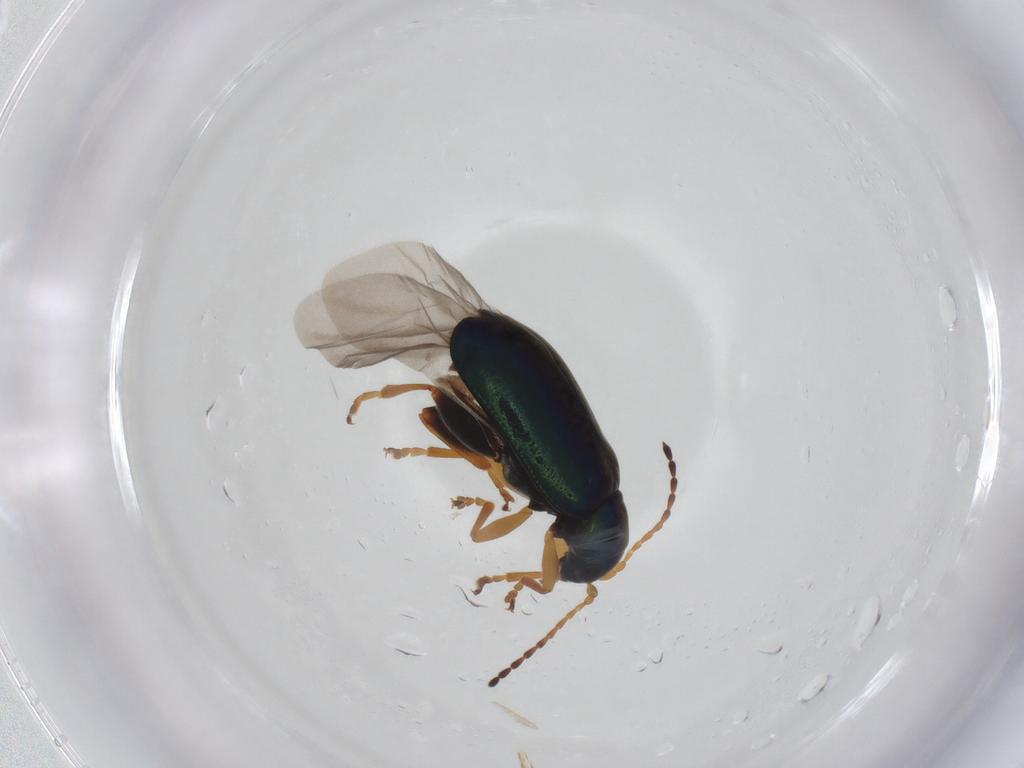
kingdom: Animalia
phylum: Arthropoda
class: Insecta
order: Coleoptera
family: Chrysomelidae
